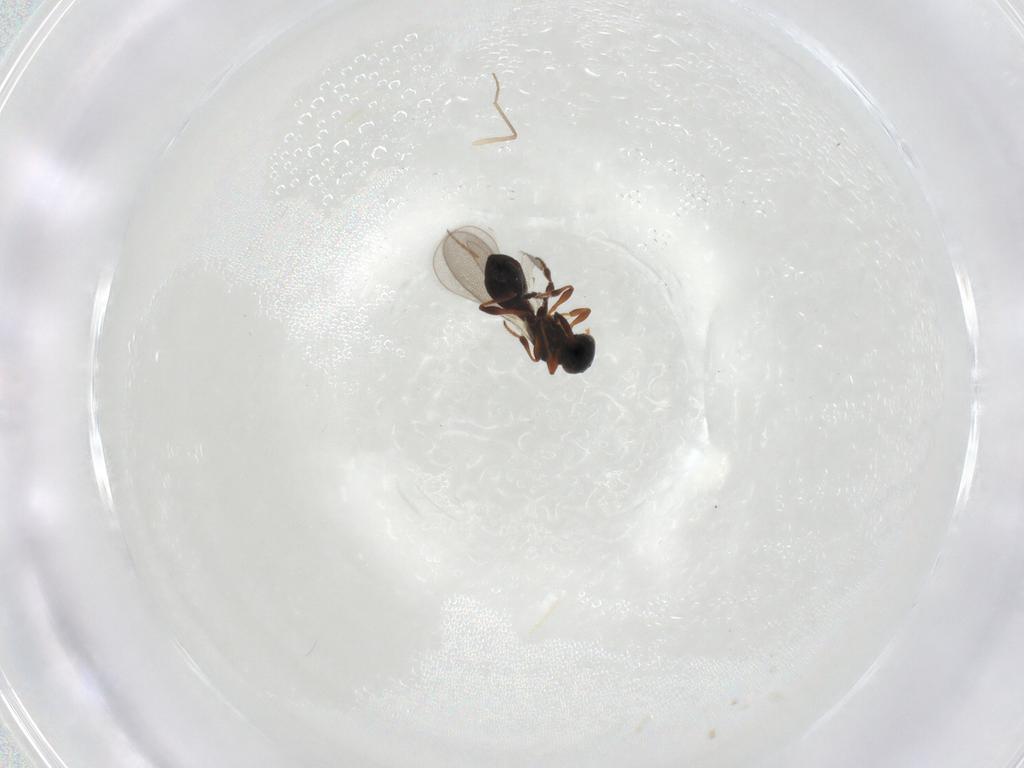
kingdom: Animalia
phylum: Arthropoda
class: Insecta
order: Hymenoptera
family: Platygastridae
